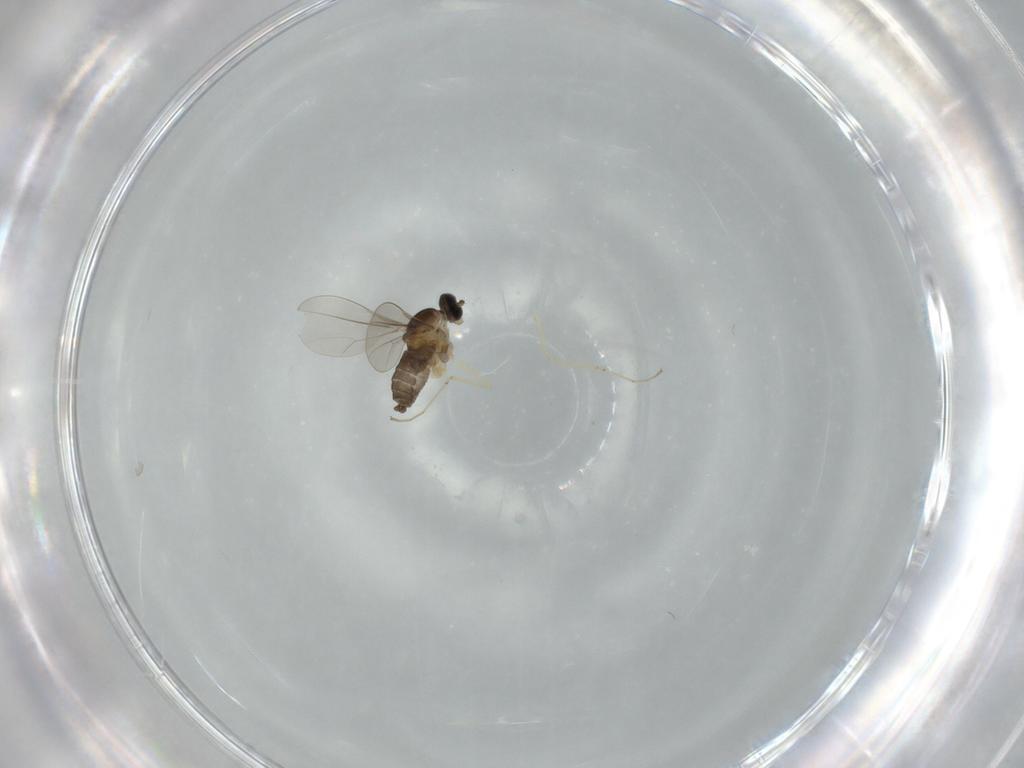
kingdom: Animalia
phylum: Arthropoda
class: Insecta
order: Diptera
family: Cecidomyiidae
